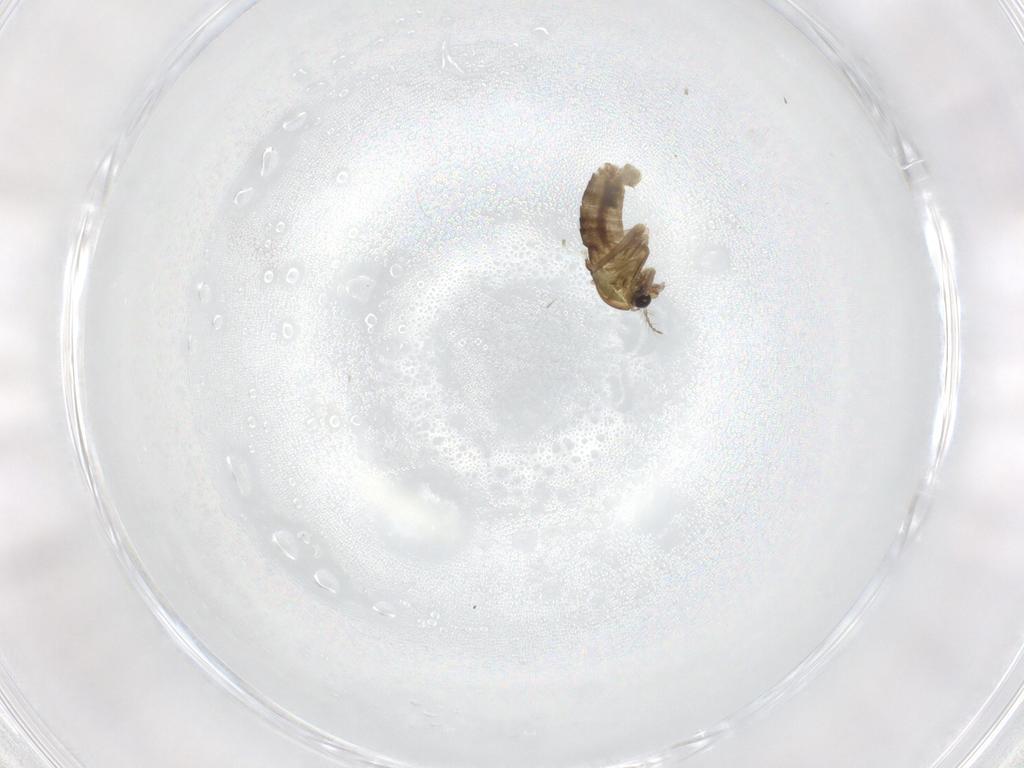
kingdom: Animalia
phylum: Arthropoda
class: Insecta
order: Diptera
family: Chironomidae
